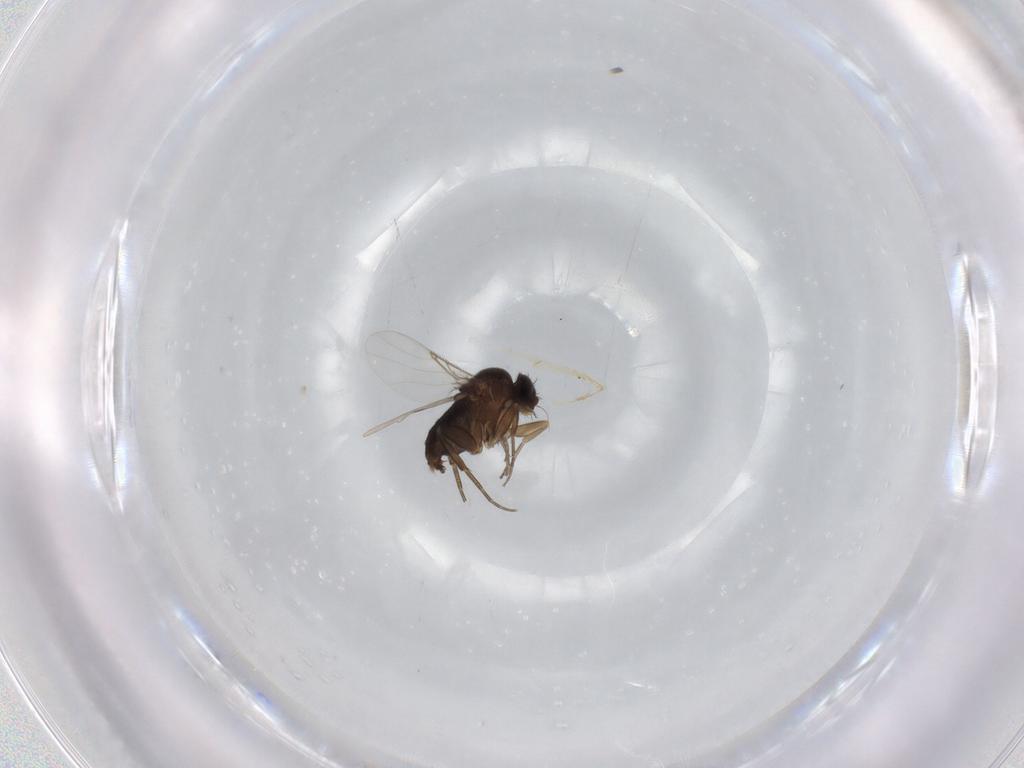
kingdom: Animalia
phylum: Arthropoda
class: Insecta
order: Diptera
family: Phoridae
